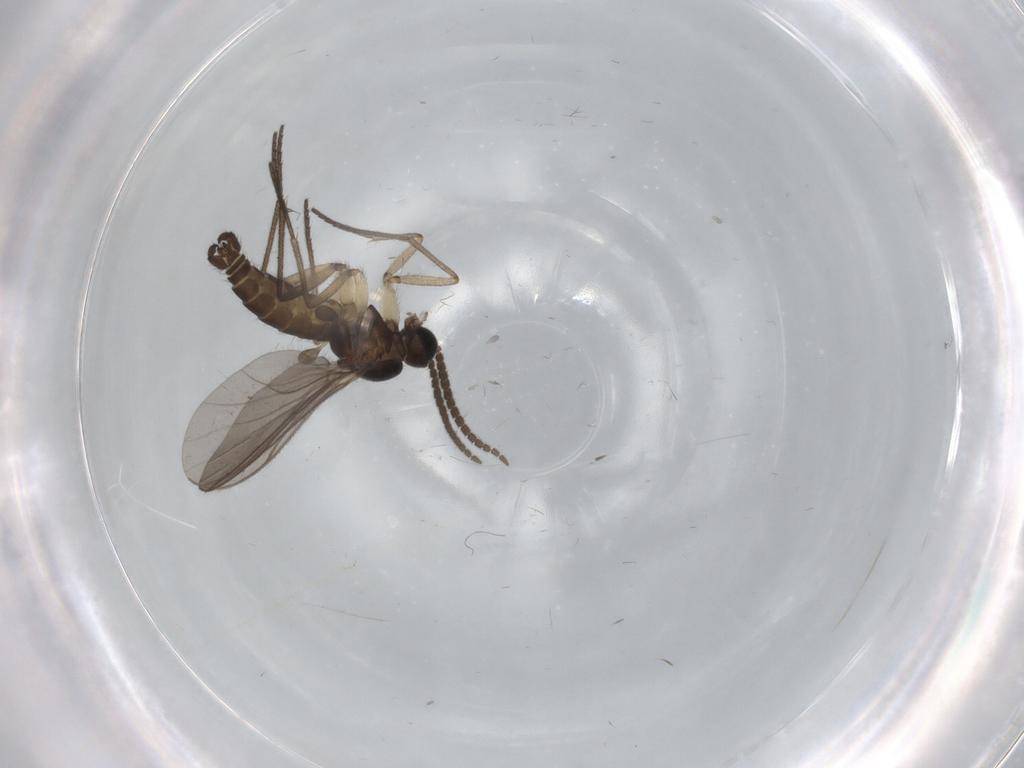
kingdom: Animalia
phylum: Arthropoda
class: Insecta
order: Diptera
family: Sciaridae
